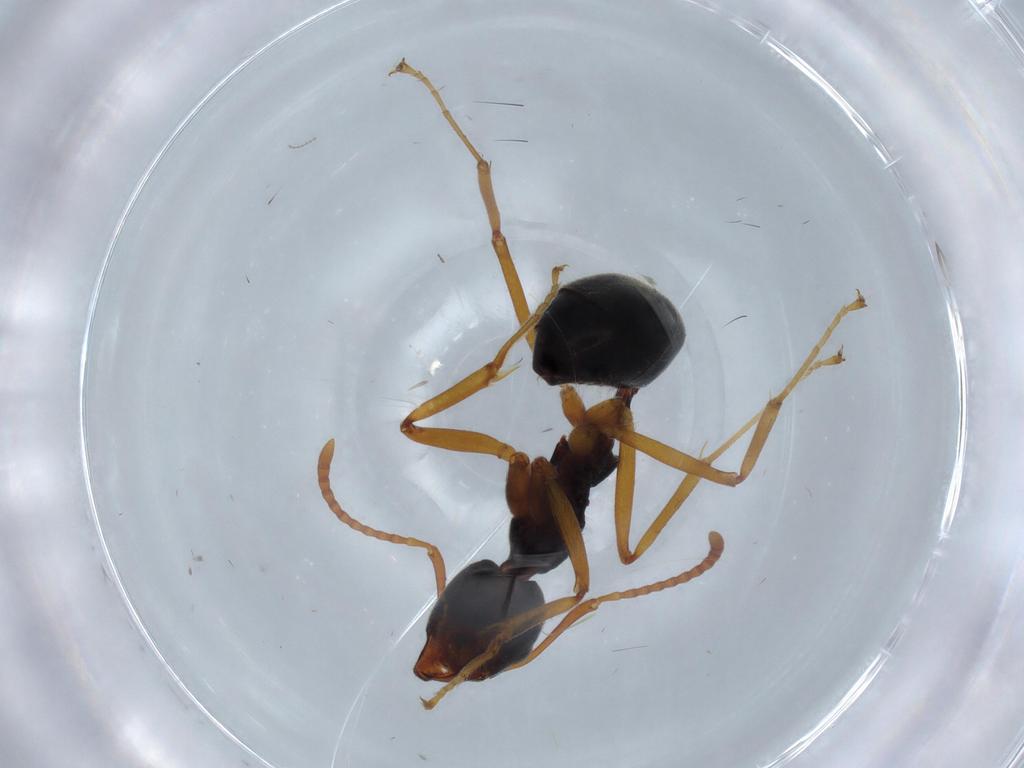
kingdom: Animalia
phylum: Arthropoda
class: Insecta
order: Hymenoptera
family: Formicidae
